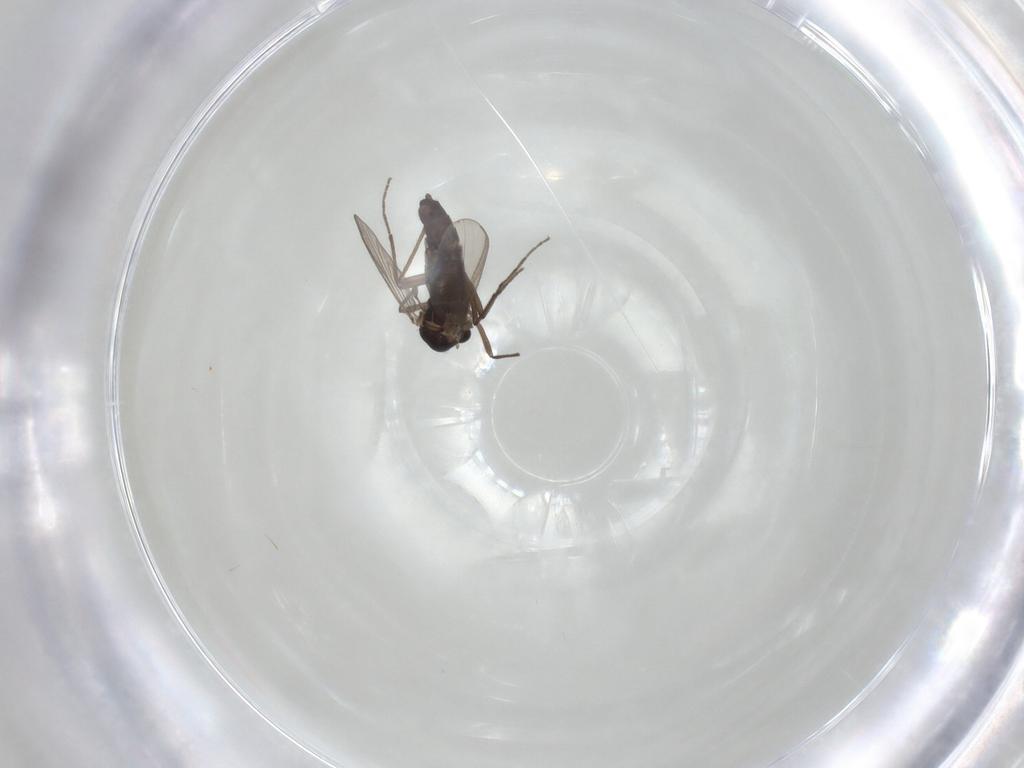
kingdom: Animalia
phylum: Arthropoda
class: Insecta
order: Diptera
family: Chironomidae
